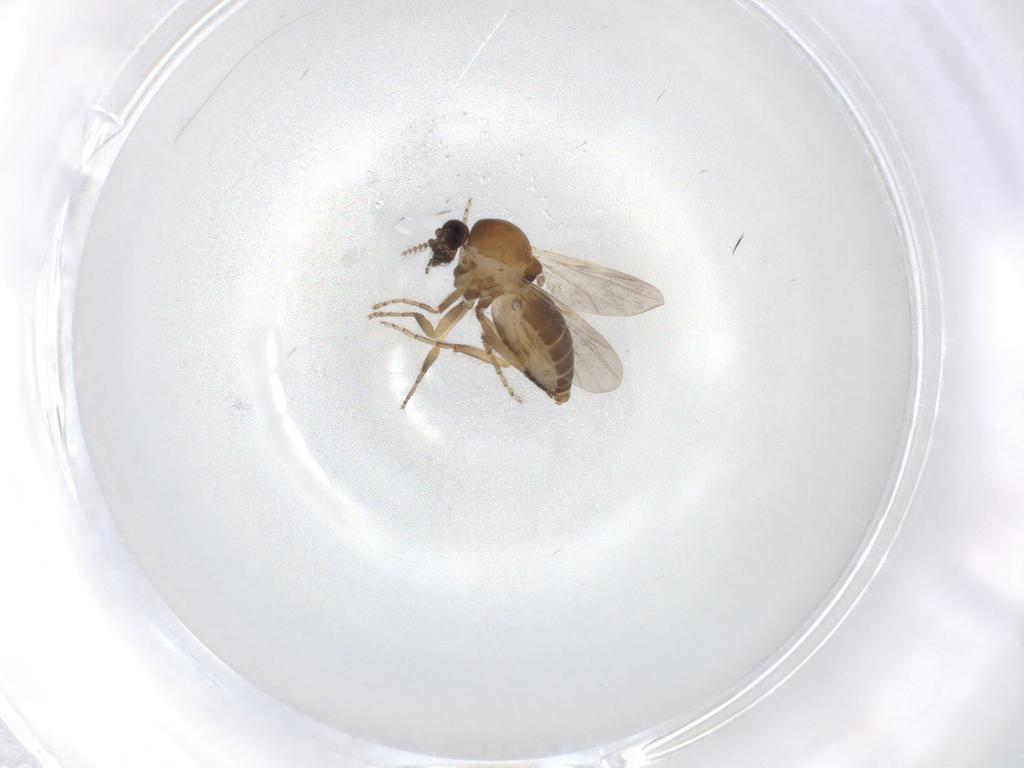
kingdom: Animalia
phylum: Arthropoda
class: Insecta
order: Diptera
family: Ceratopogonidae
